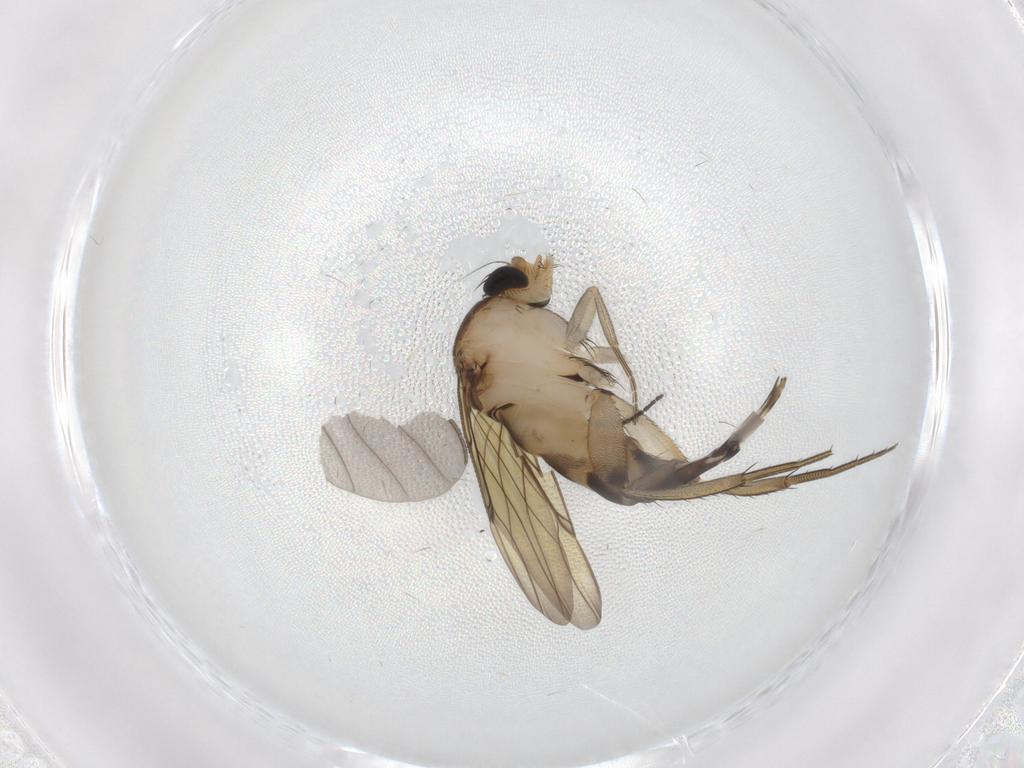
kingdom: Animalia
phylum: Arthropoda
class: Insecta
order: Diptera
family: Phoridae
